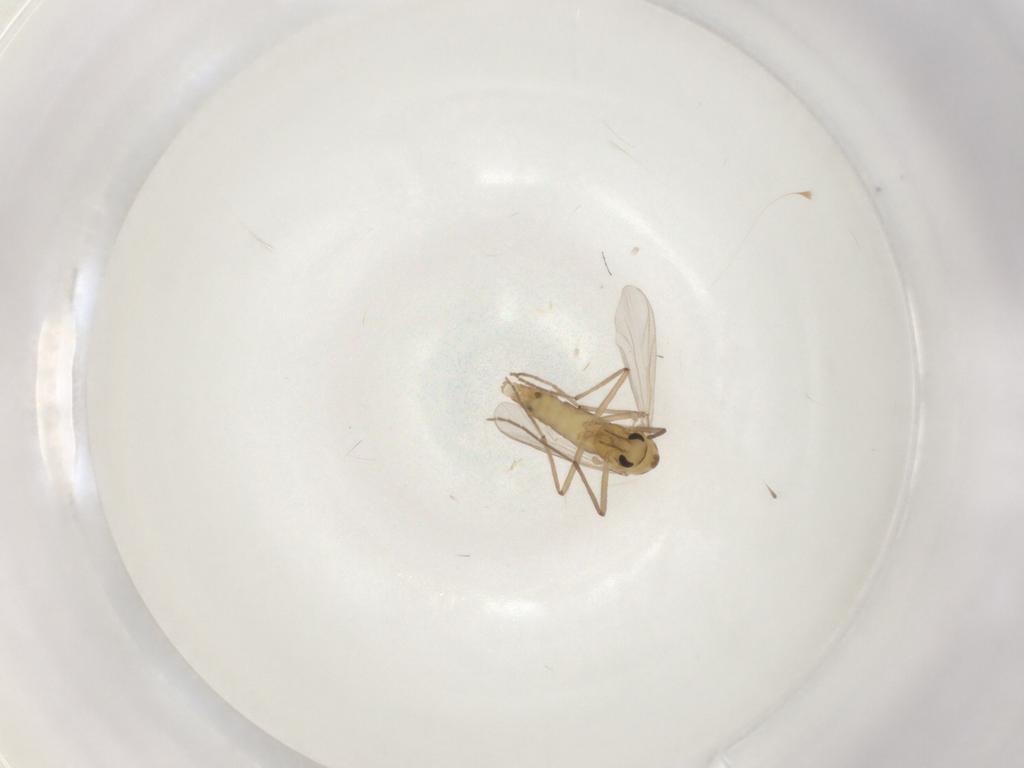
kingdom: Animalia
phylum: Arthropoda
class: Insecta
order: Diptera
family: Chironomidae
